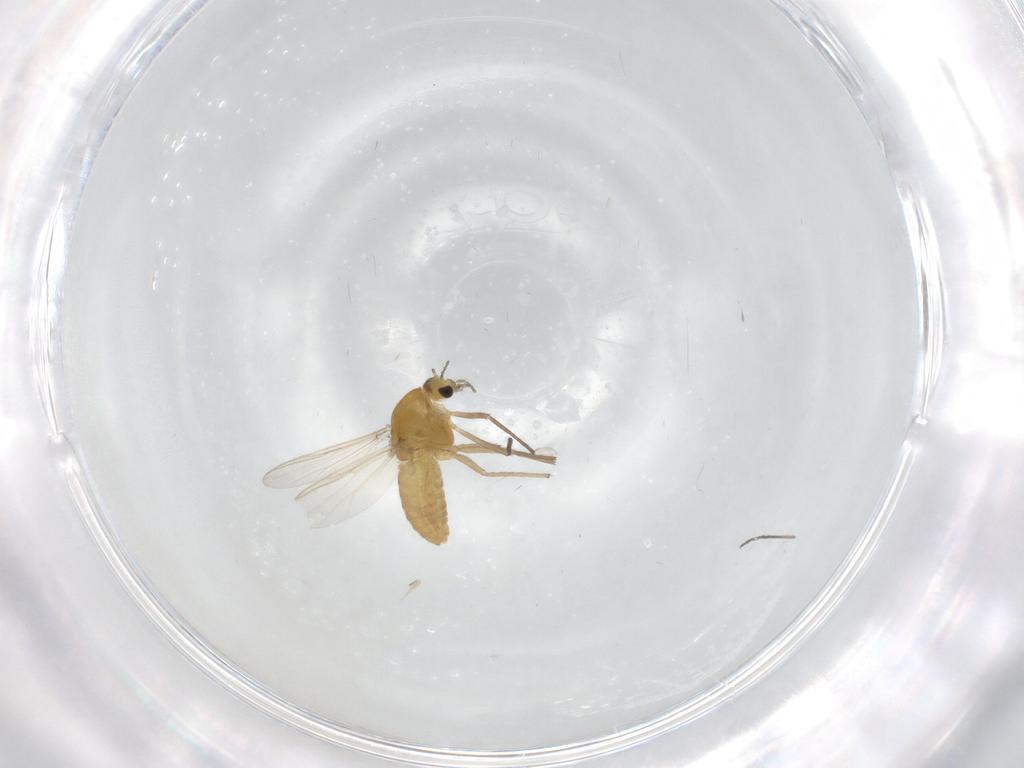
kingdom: Animalia
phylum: Arthropoda
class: Insecta
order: Diptera
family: Chironomidae
